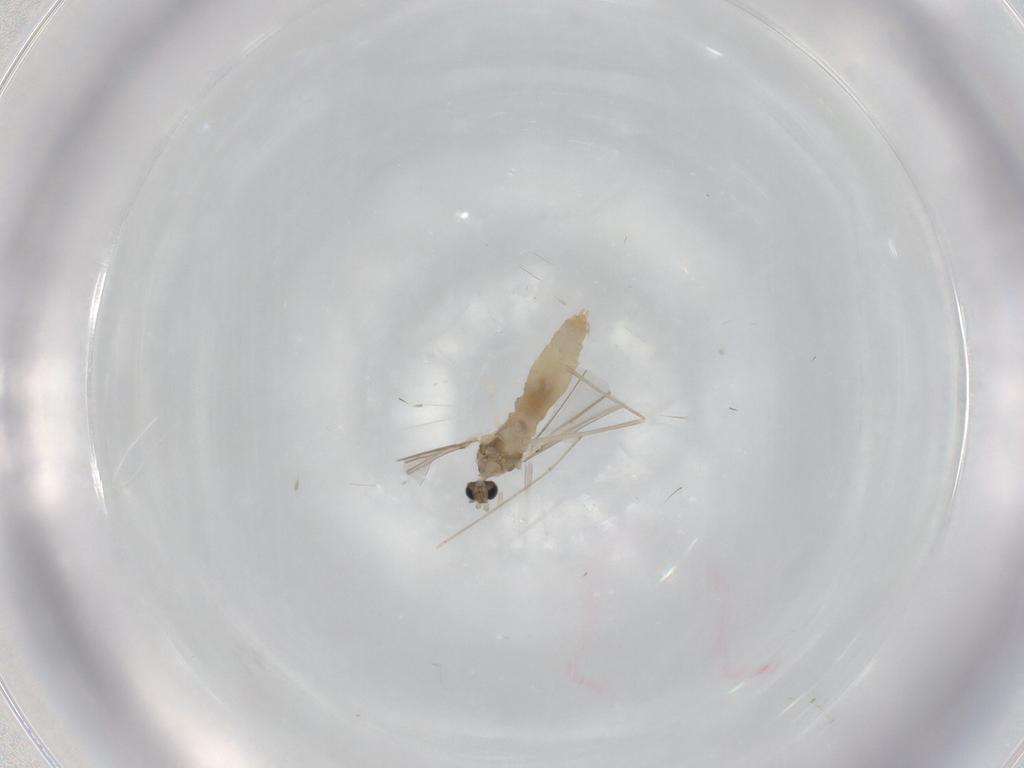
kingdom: Animalia
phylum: Arthropoda
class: Insecta
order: Diptera
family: Cecidomyiidae
